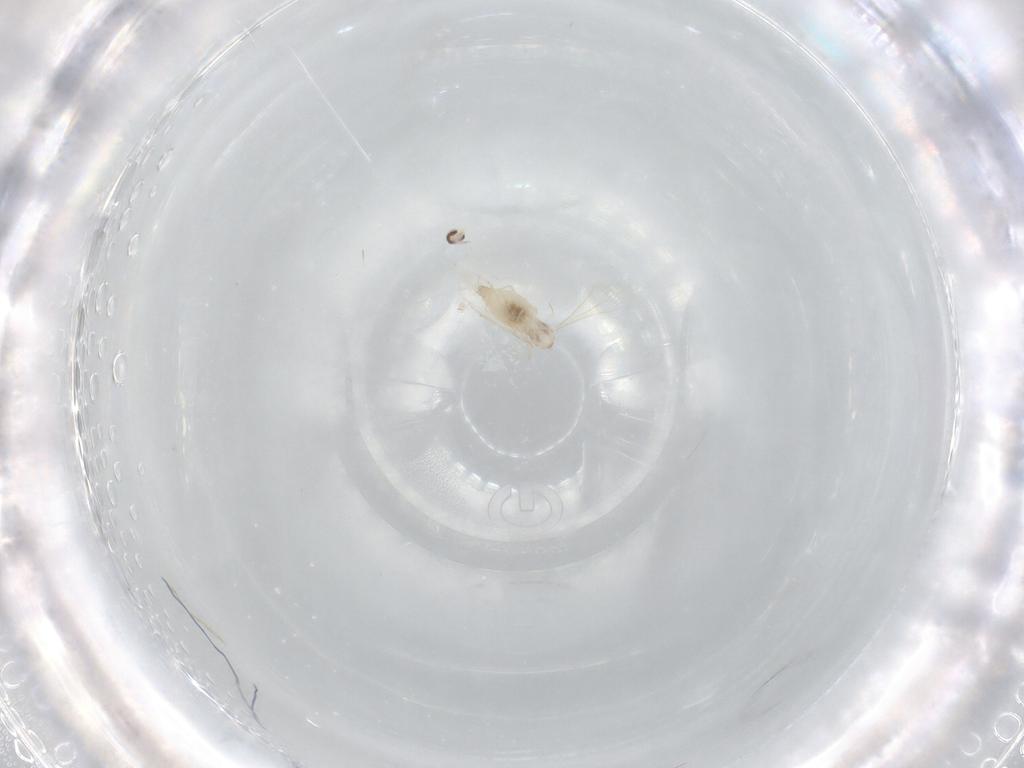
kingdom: Animalia
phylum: Arthropoda
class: Insecta
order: Diptera
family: Chironomidae
